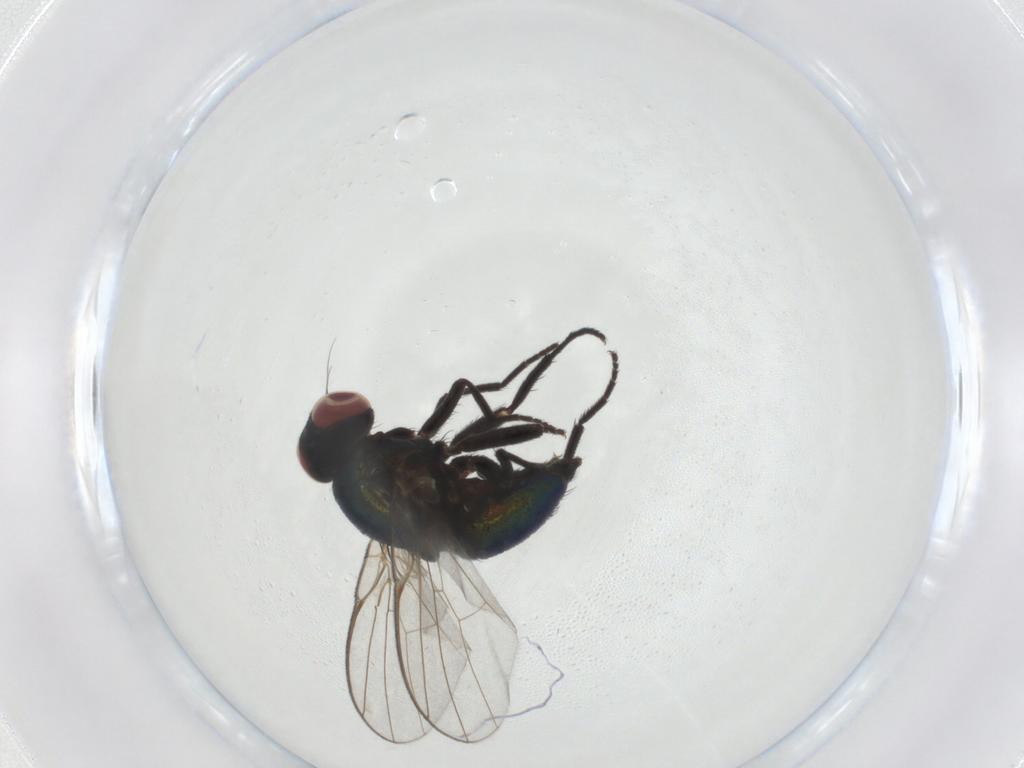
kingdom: Animalia
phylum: Arthropoda
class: Insecta
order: Diptera
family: Agromyzidae
